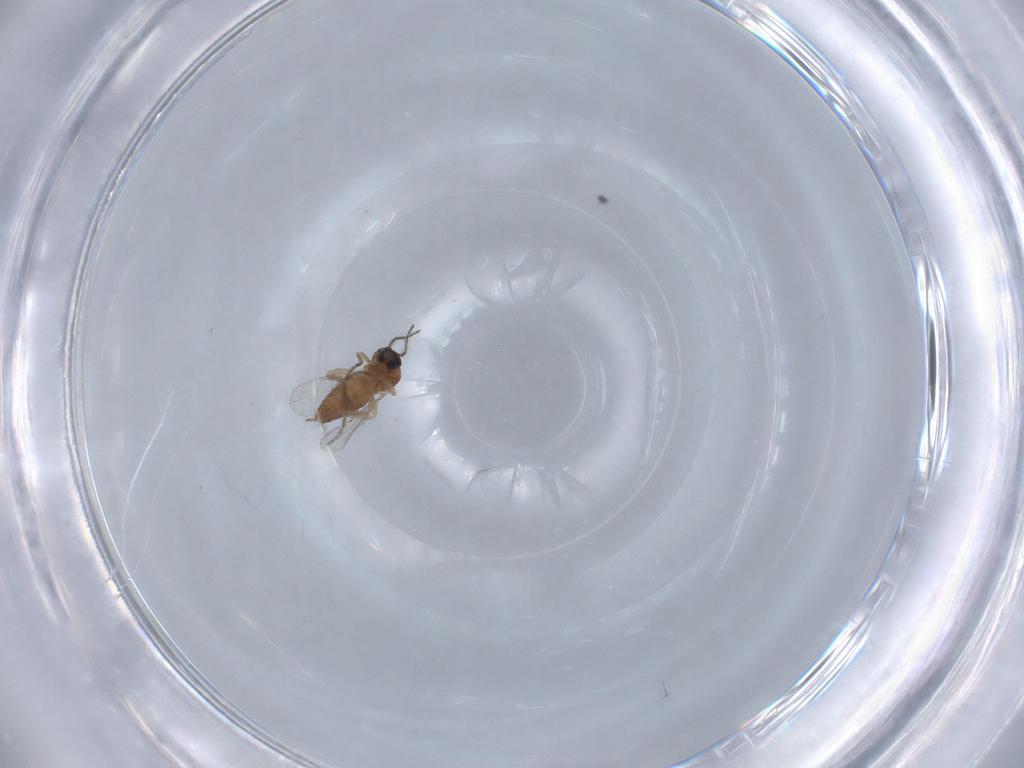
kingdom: Animalia
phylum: Arthropoda
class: Insecta
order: Diptera
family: Ceratopogonidae
